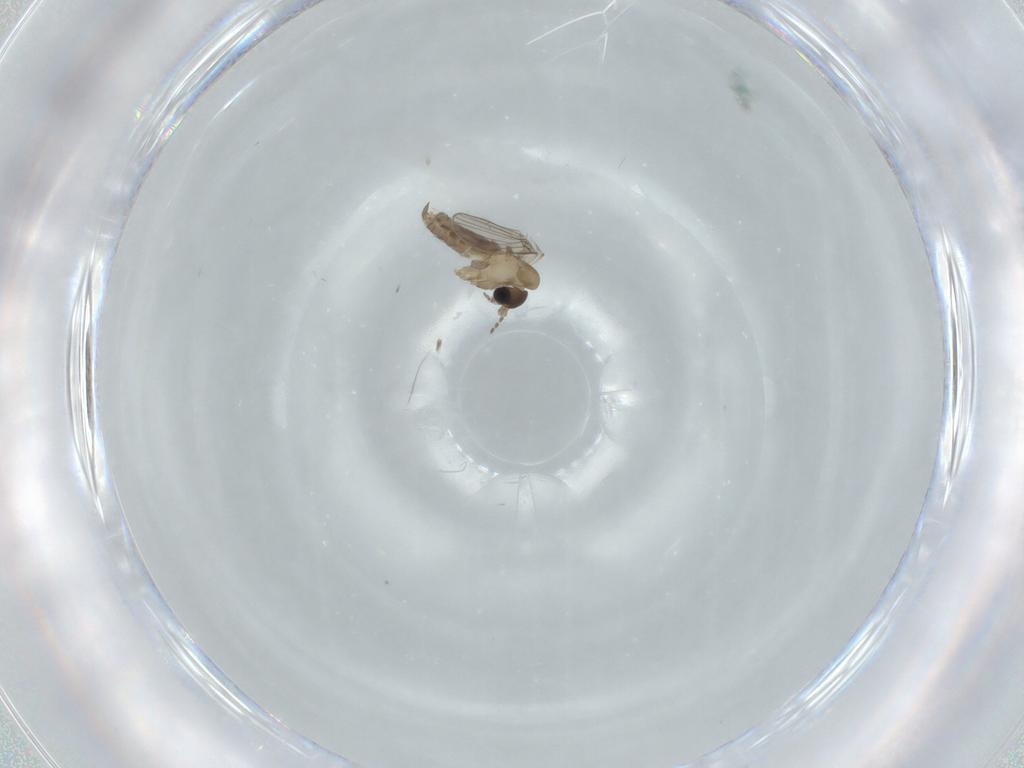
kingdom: Animalia
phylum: Arthropoda
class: Insecta
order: Diptera
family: Psychodidae
